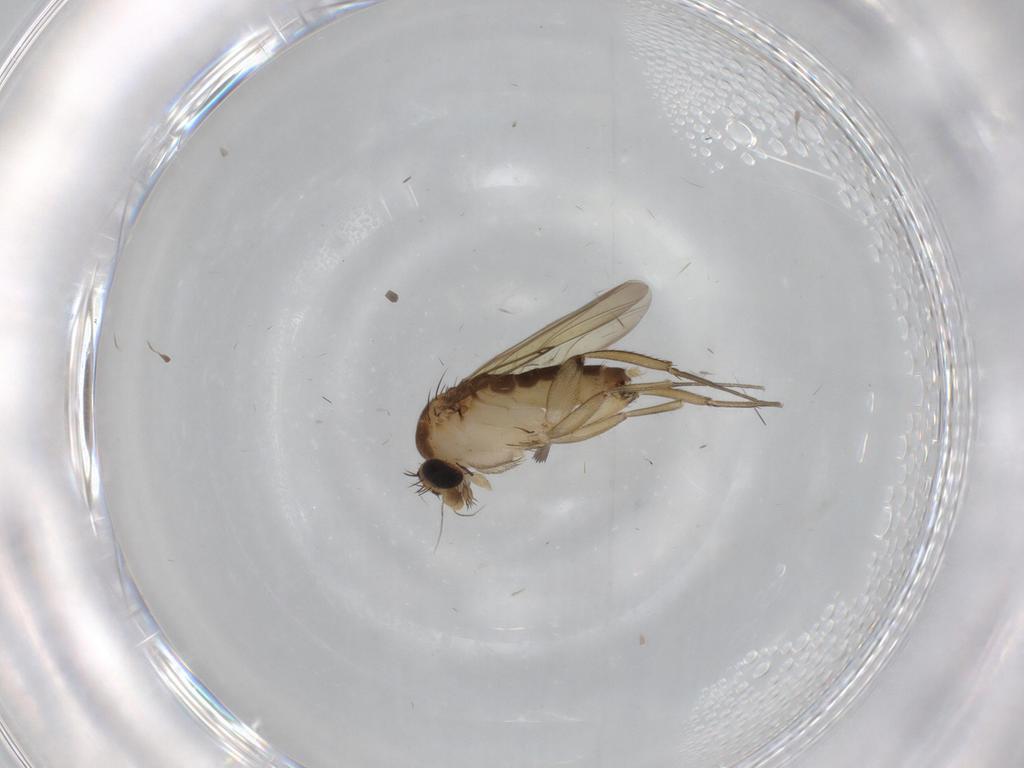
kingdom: Animalia
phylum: Arthropoda
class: Insecta
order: Diptera
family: Phoridae
